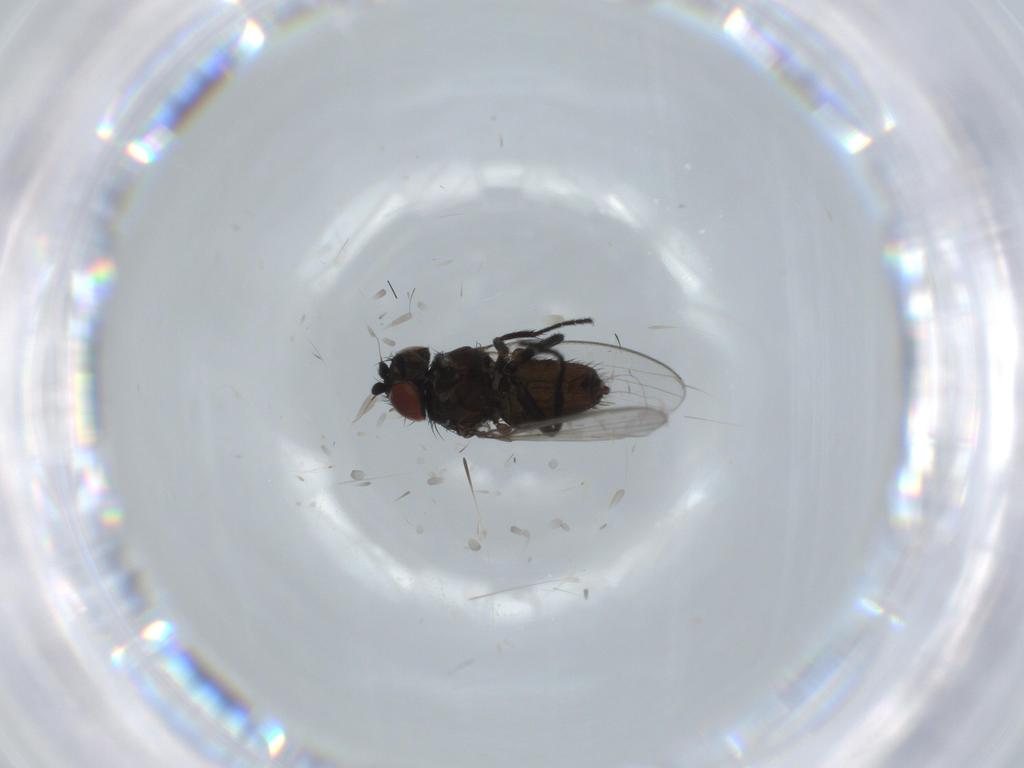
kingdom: Animalia
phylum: Arthropoda
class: Insecta
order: Diptera
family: Milichiidae
